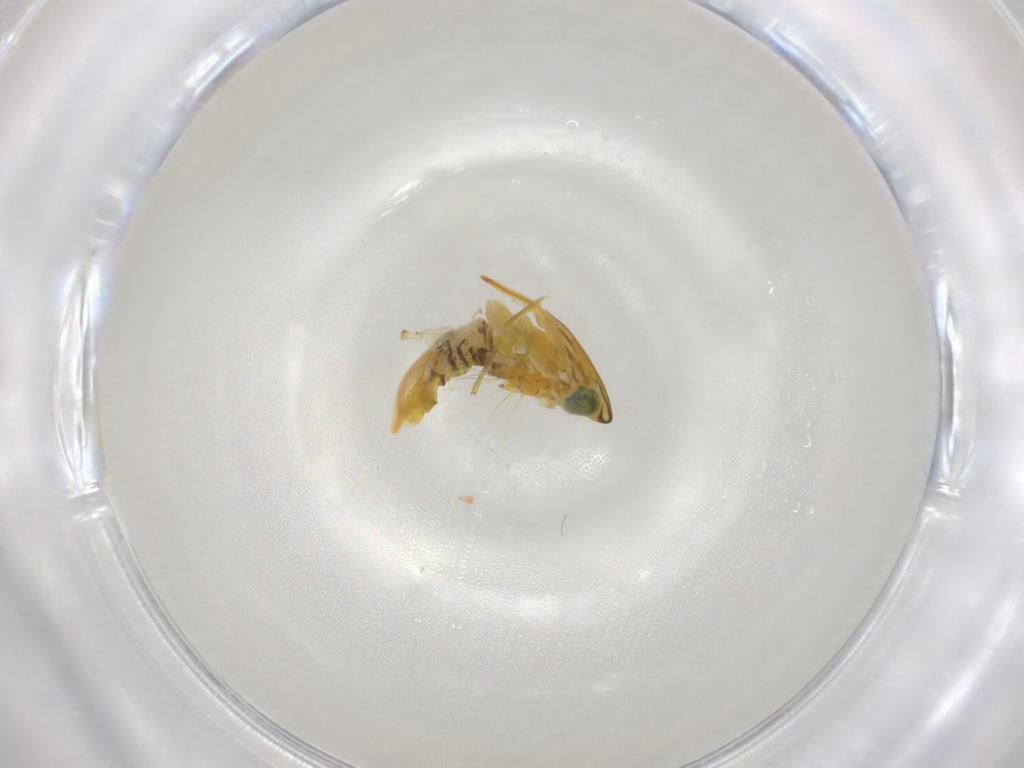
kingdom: Animalia
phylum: Arthropoda
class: Insecta
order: Hemiptera
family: Cicadellidae
